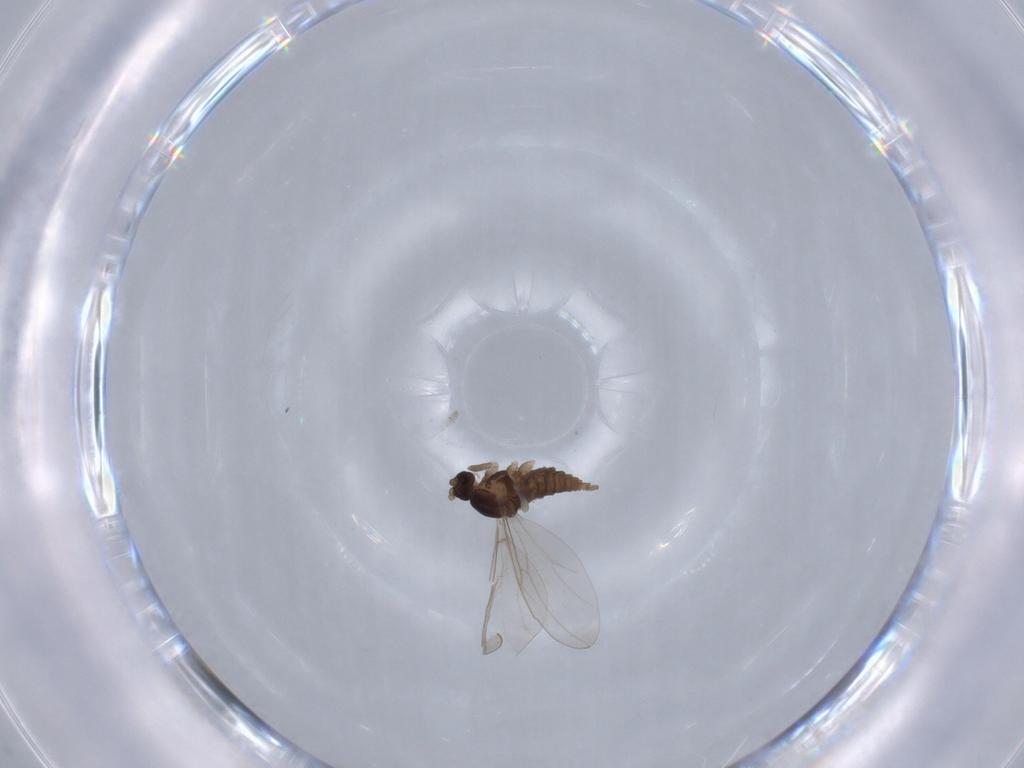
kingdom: Animalia
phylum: Arthropoda
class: Insecta
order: Diptera
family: Cecidomyiidae
